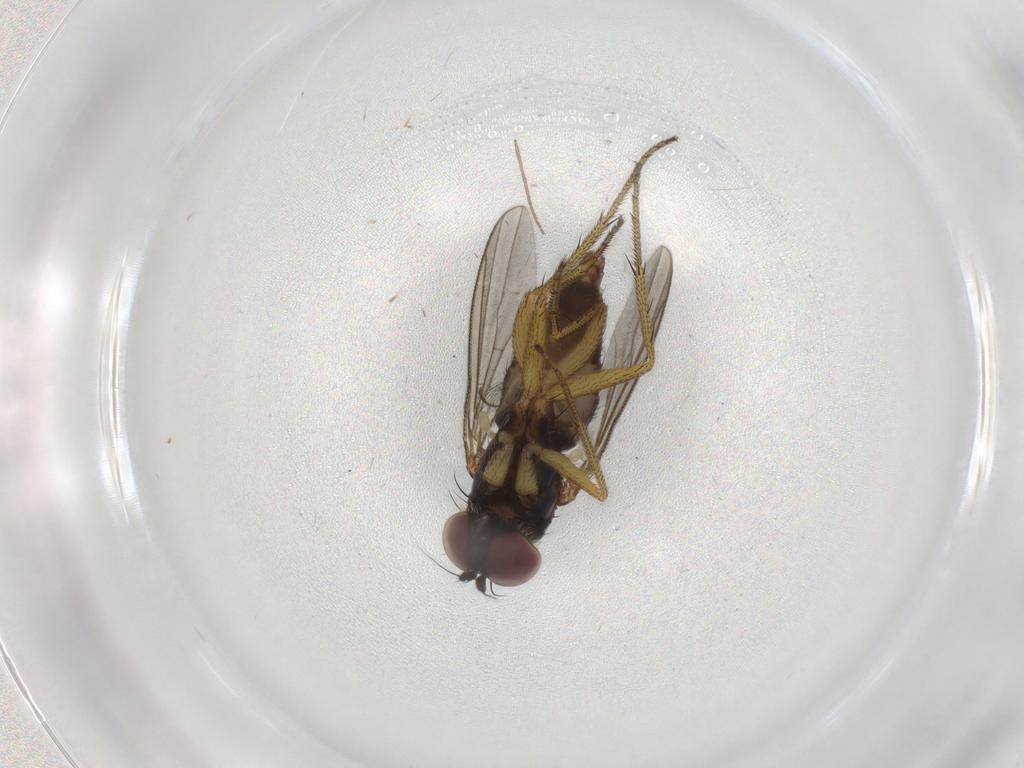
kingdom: Animalia
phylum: Arthropoda
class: Insecta
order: Diptera
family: Chironomidae
